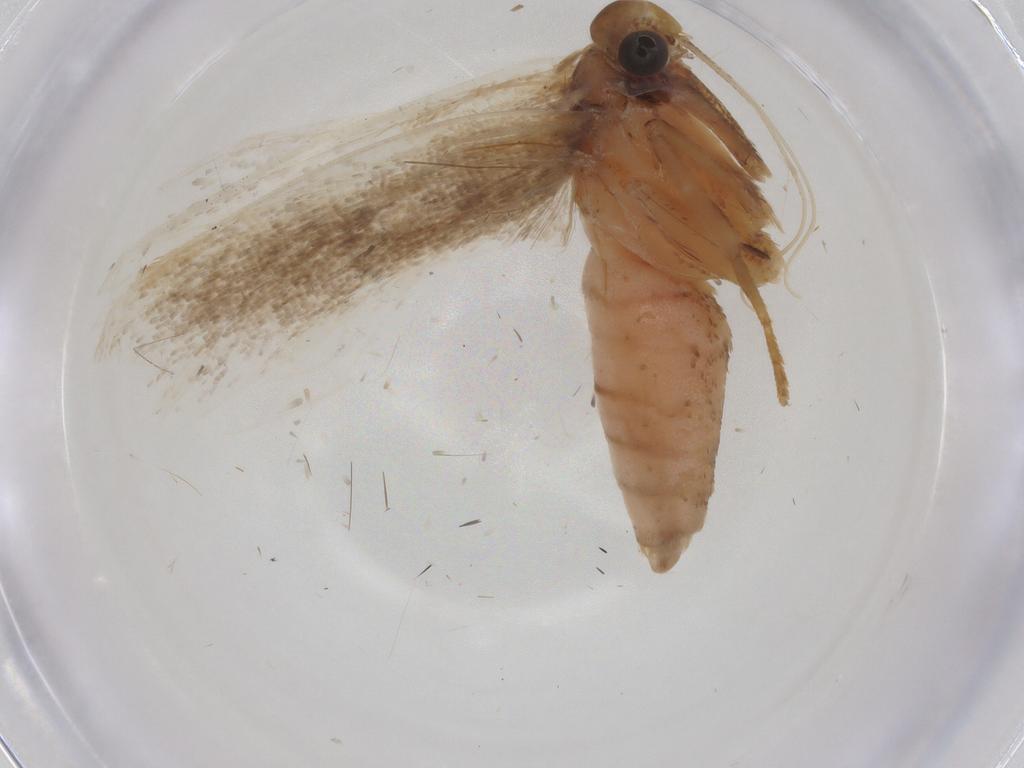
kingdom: Animalia
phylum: Arthropoda
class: Insecta
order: Lepidoptera
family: Gelechiidae
